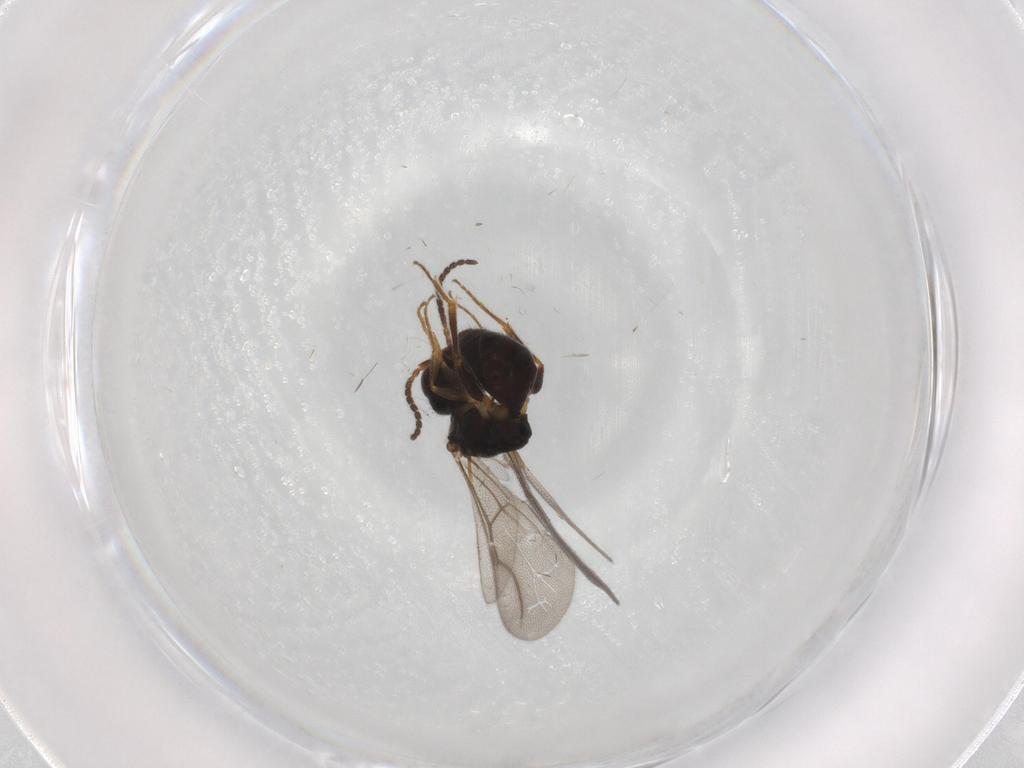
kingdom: Animalia
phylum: Arthropoda
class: Insecta
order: Hymenoptera
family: Bethylidae
